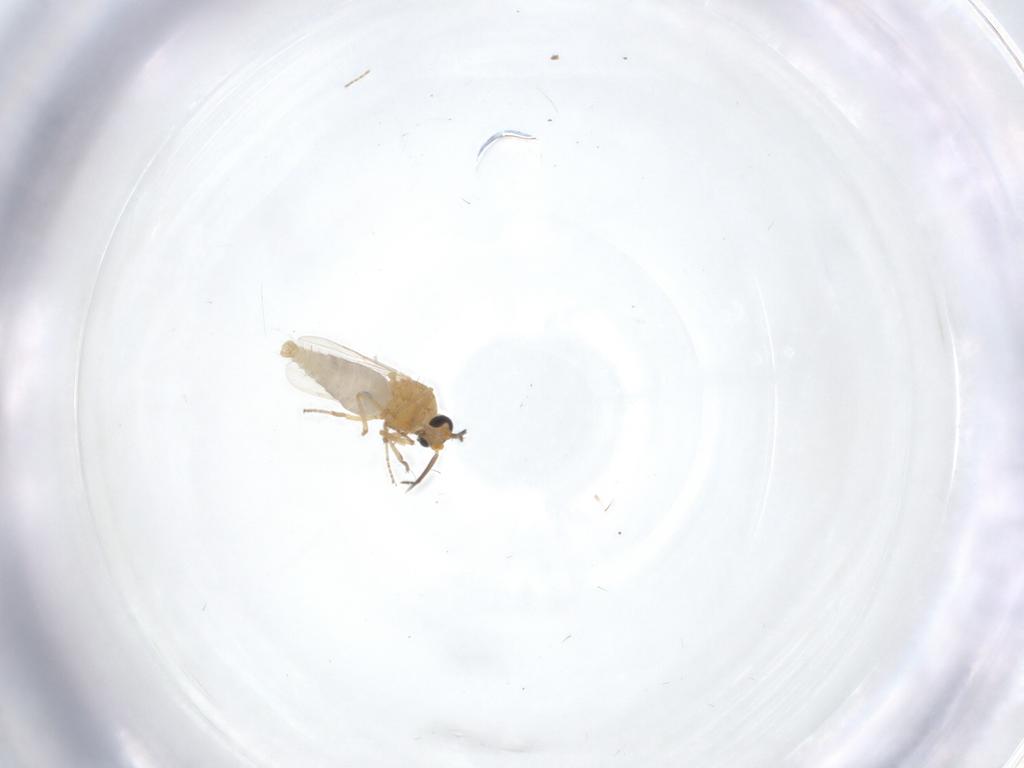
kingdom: Animalia
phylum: Arthropoda
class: Insecta
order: Diptera
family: Ceratopogonidae
